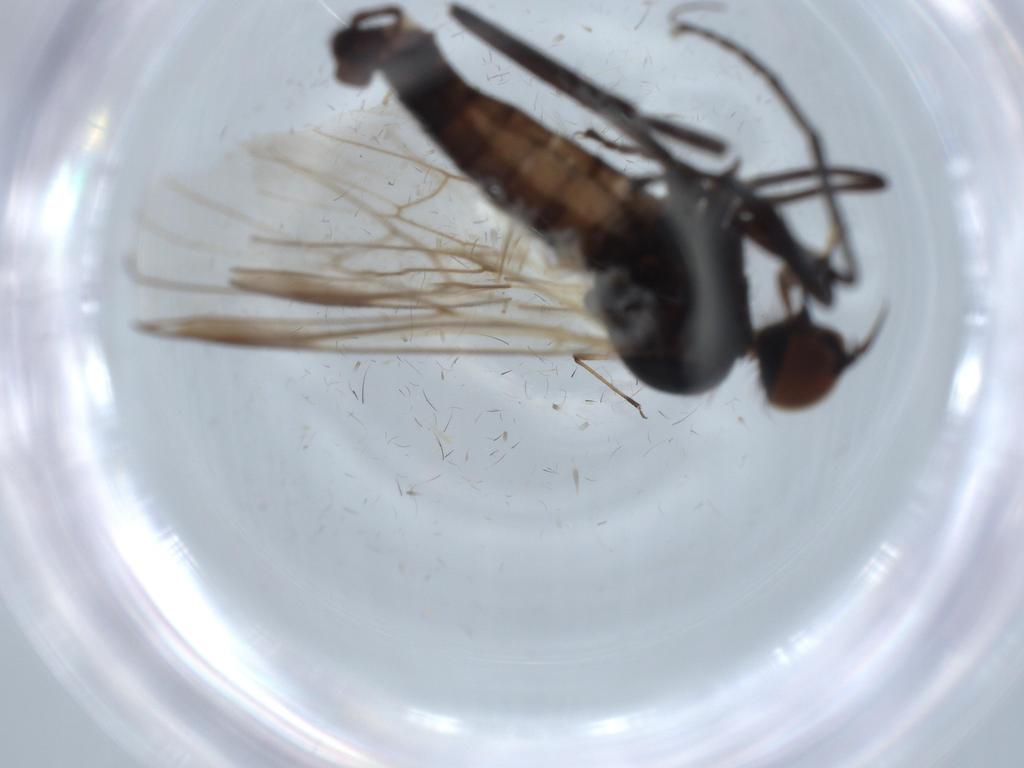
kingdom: Animalia
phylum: Arthropoda
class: Insecta
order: Diptera
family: Empididae
